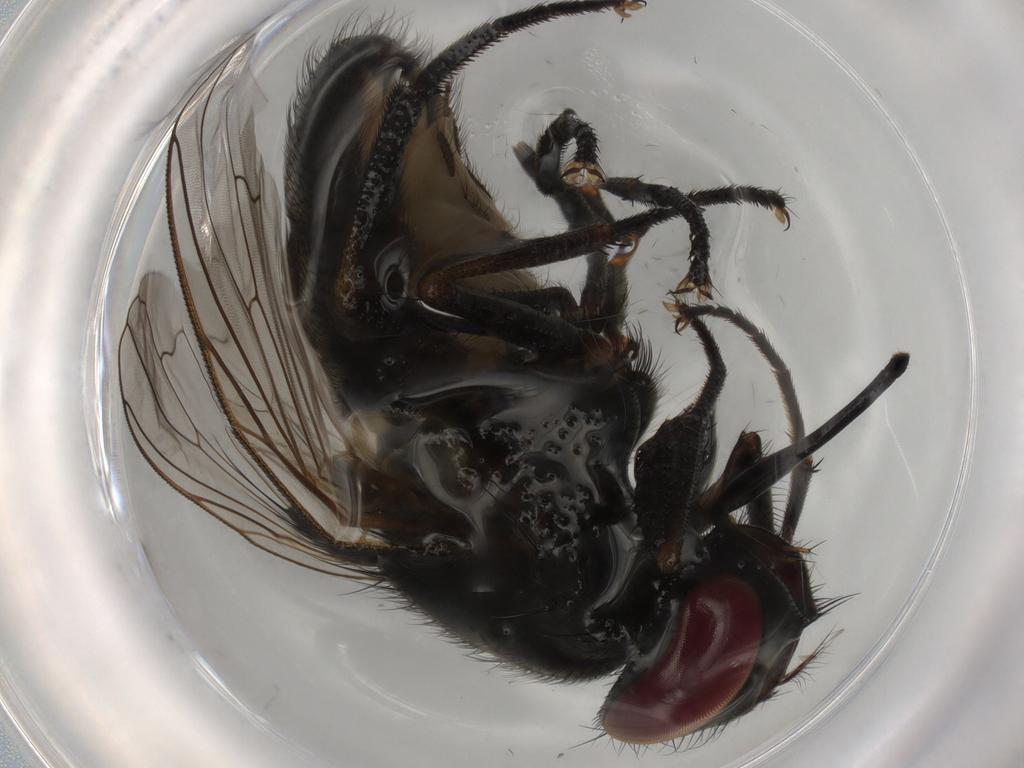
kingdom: Animalia
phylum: Arthropoda
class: Insecta
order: Diptera
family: Muscidae
